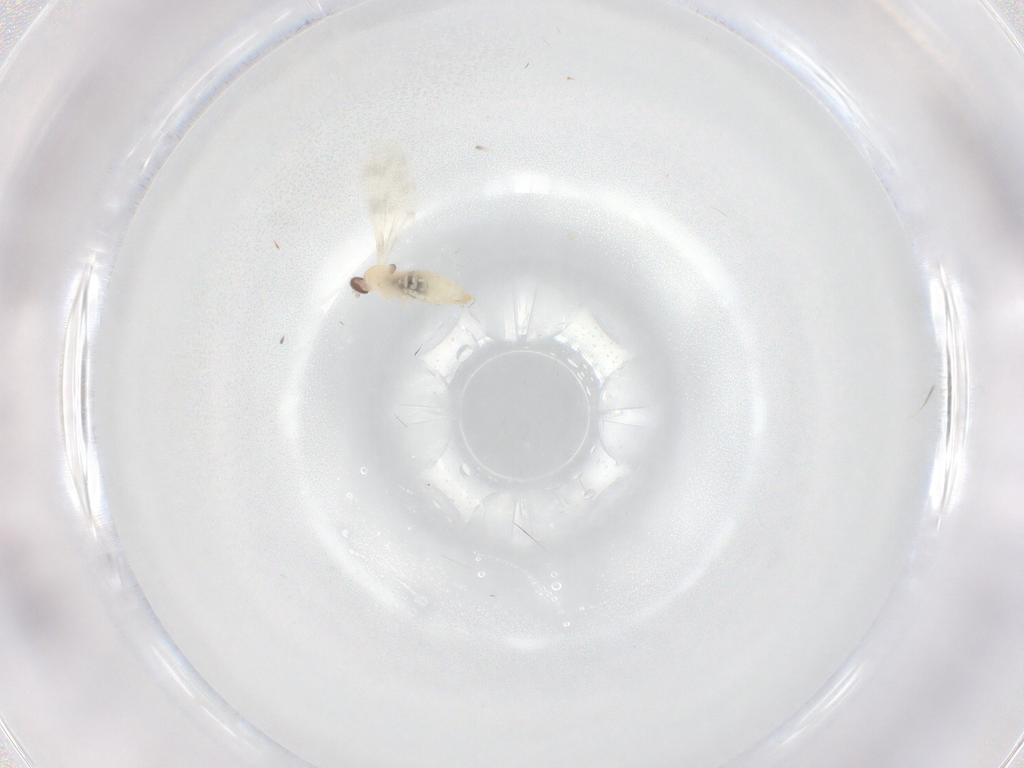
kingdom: Animalia
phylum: Arthropoda
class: Insecta
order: Diptera
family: Cecidomyiidae
